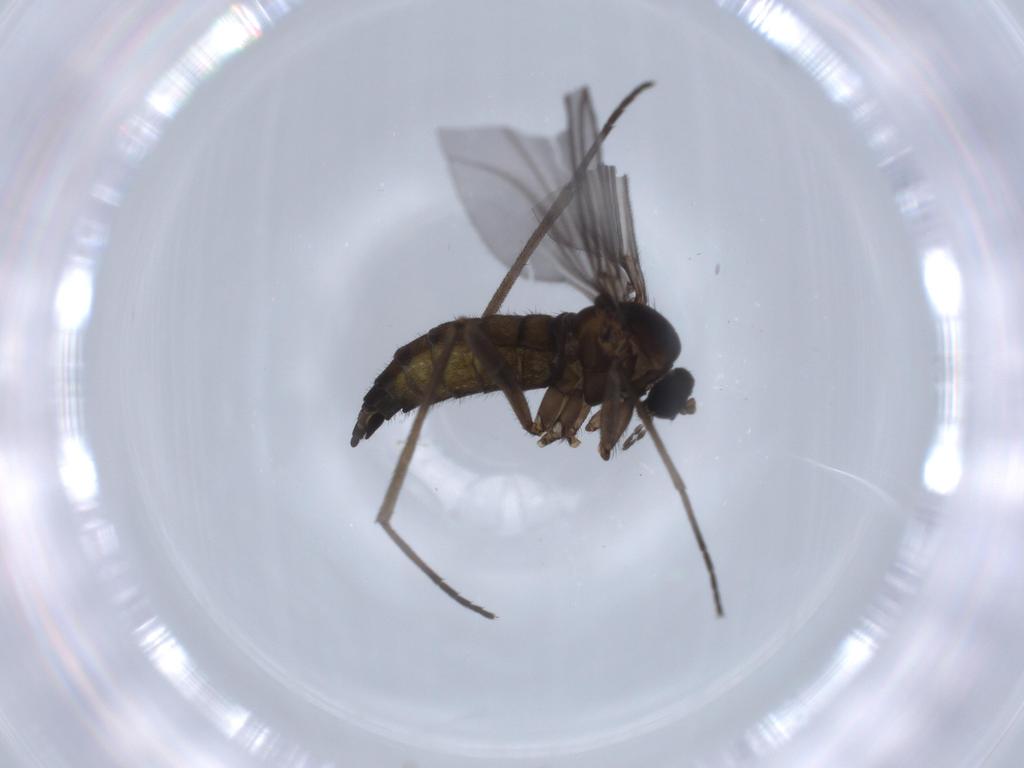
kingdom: Animalia
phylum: Arthropoda
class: Insecta
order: Diptera
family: Sciaridae
